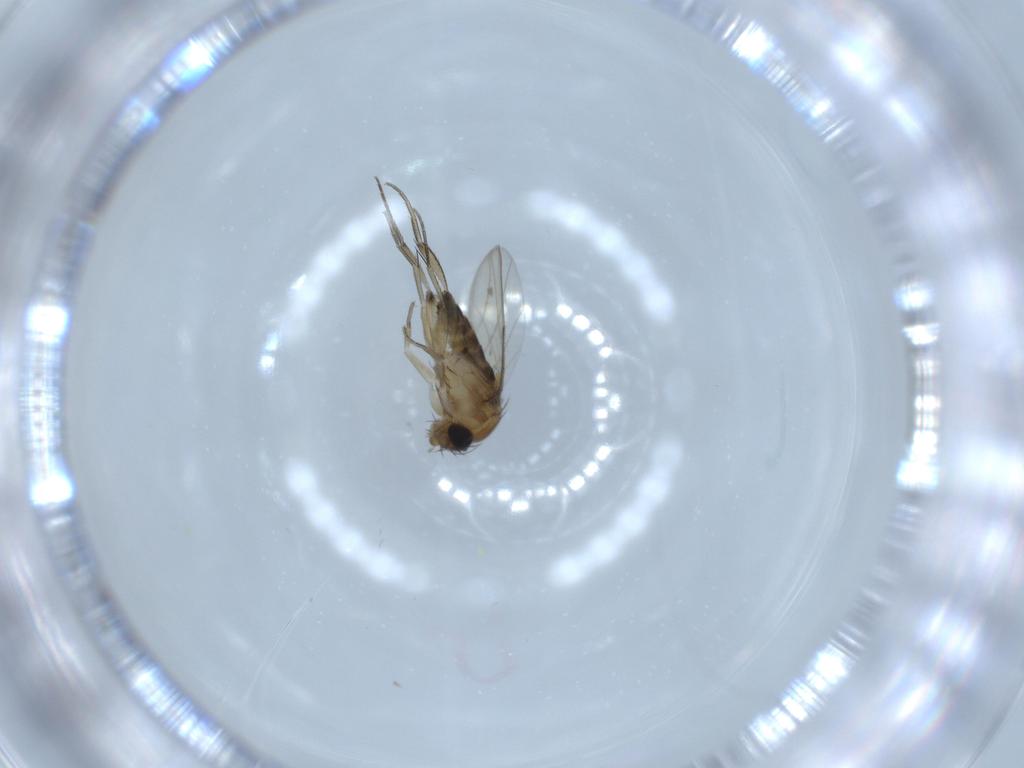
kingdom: Animalia
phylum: Arthropoda
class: Insecta
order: Diptera
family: Phoridae
